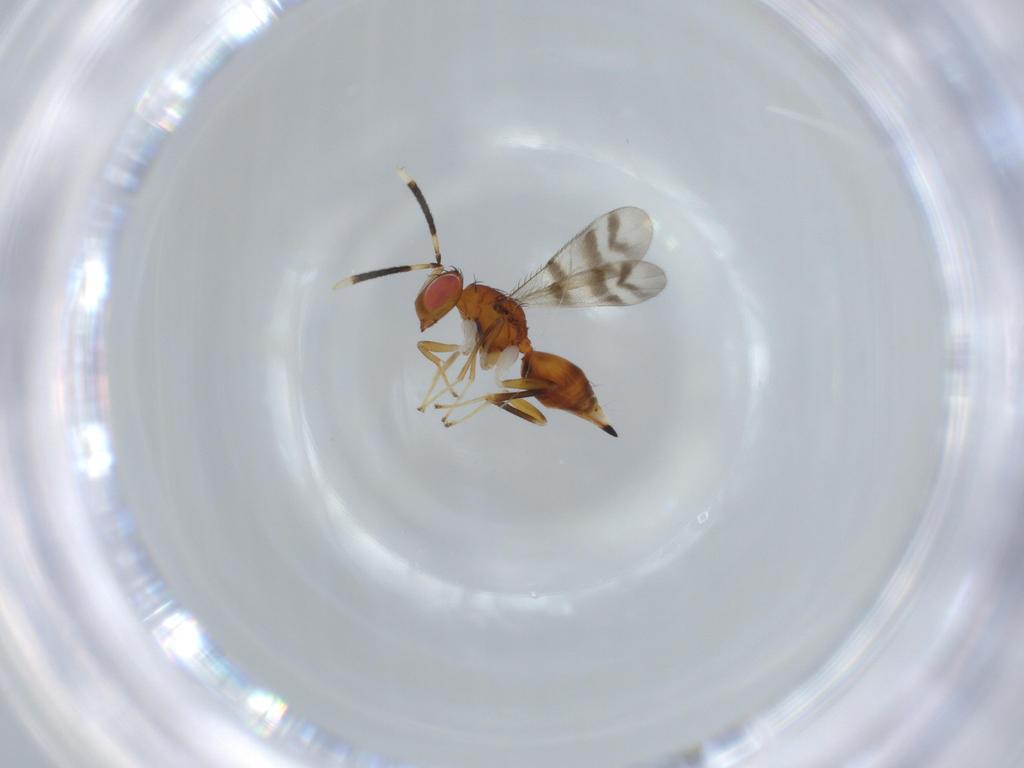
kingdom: Animalia
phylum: Arthropoda
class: Insecta
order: Hymenoptera
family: Diparidae
